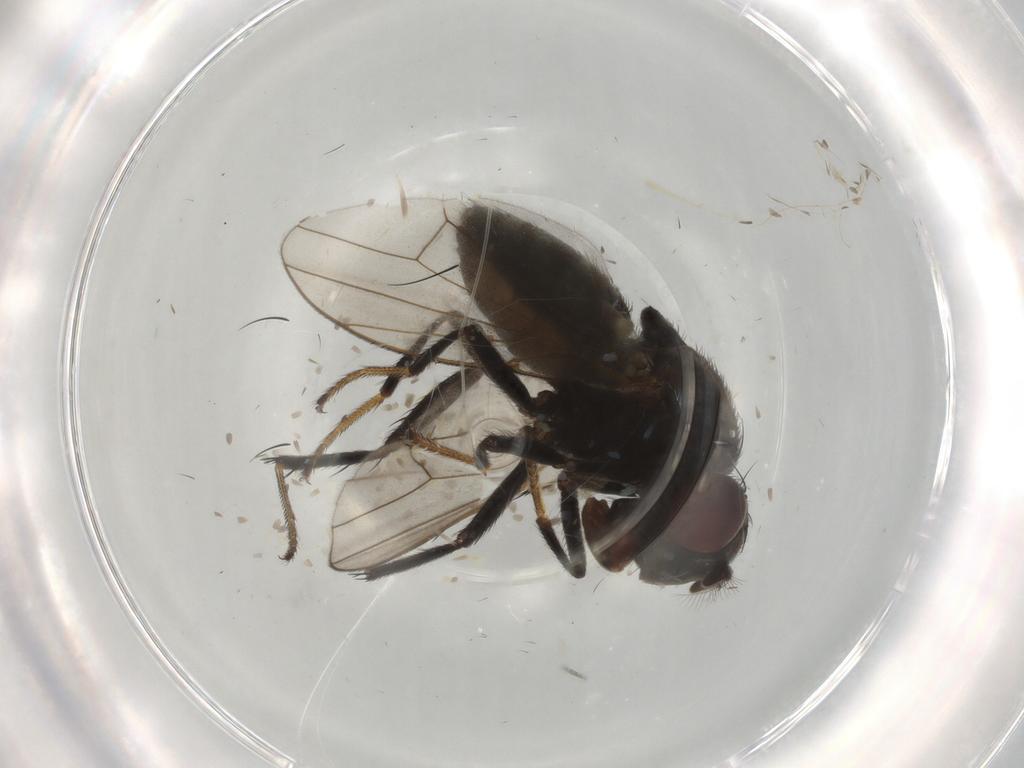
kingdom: Animalia
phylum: Arthropoda
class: Insecta
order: Diptera
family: Ephydridae
